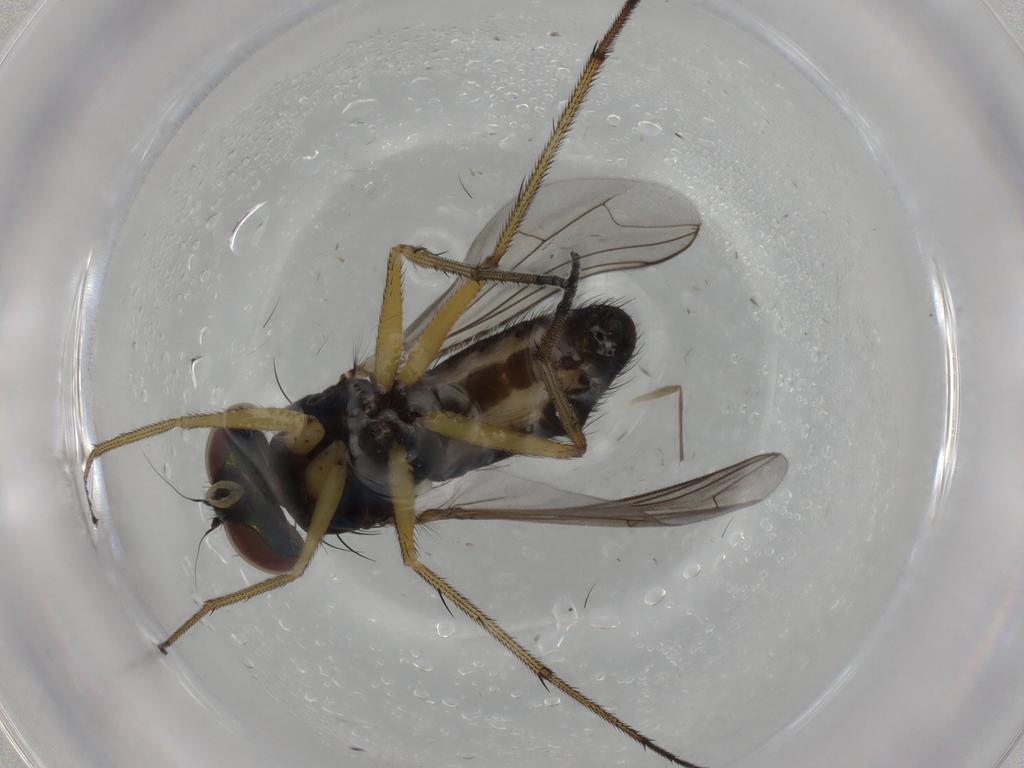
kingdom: Animalia
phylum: Arthropoda
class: Insecta
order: Diptera
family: Dolichopodidae
